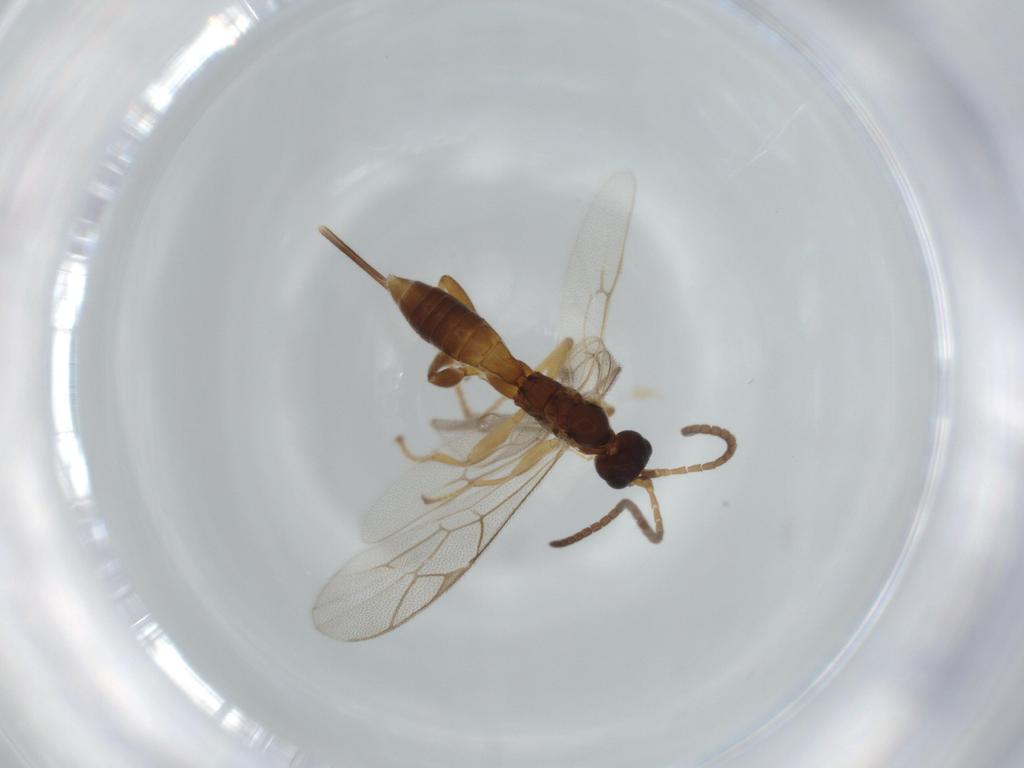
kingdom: Animalia
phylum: Arthropoda
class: Insecta
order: Hymenoptera
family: Ichneumonidae
